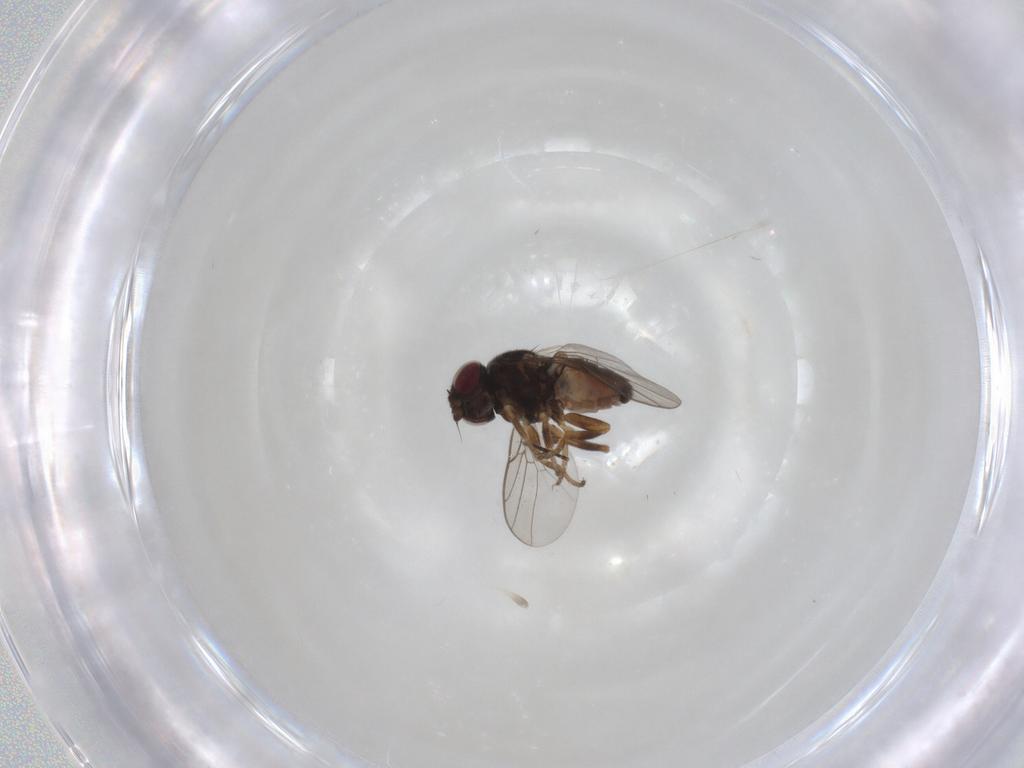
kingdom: Animalia
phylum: Arthropoda
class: Insecta
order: Diptera
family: Chloropidae
